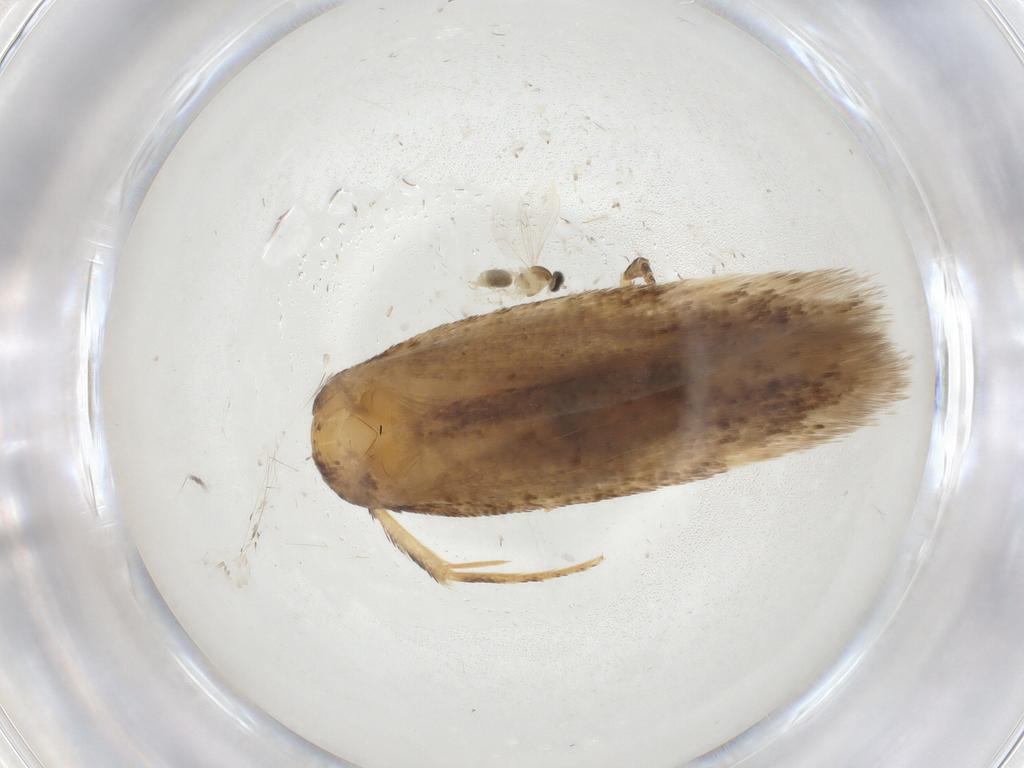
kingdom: Animalia
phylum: Arthropoda
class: Insecta
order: Lepidoptera
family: Gelechiidae
